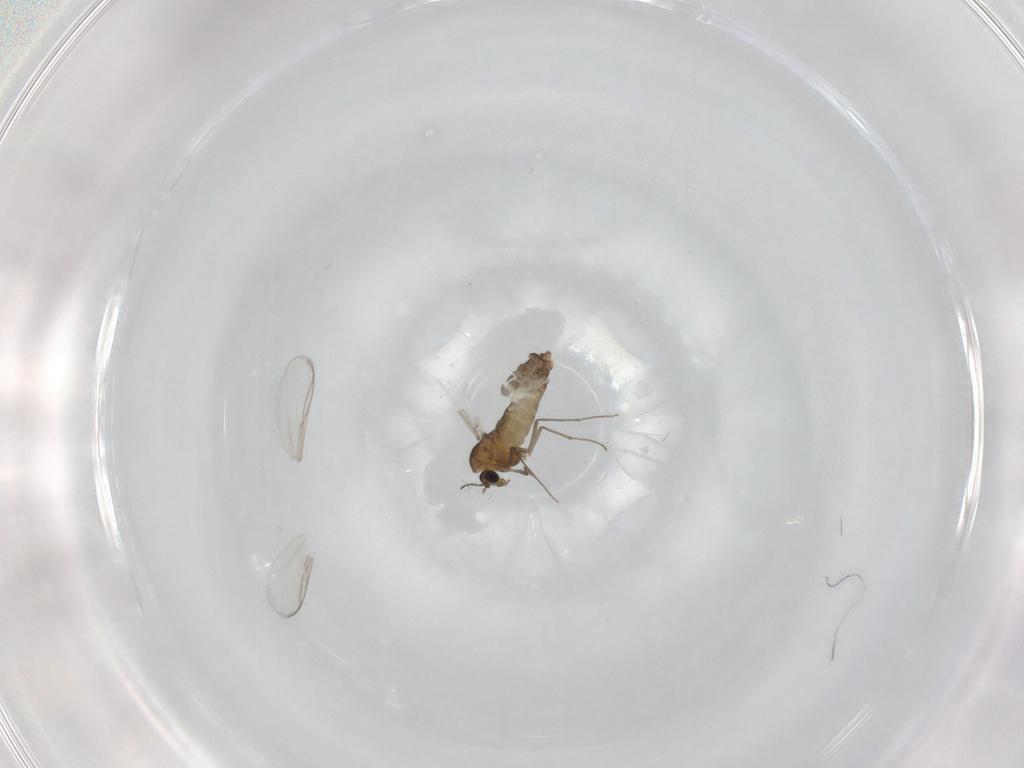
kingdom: Animalia
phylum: Arthropoda
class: Insecta
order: Diptera
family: Chironomidae
